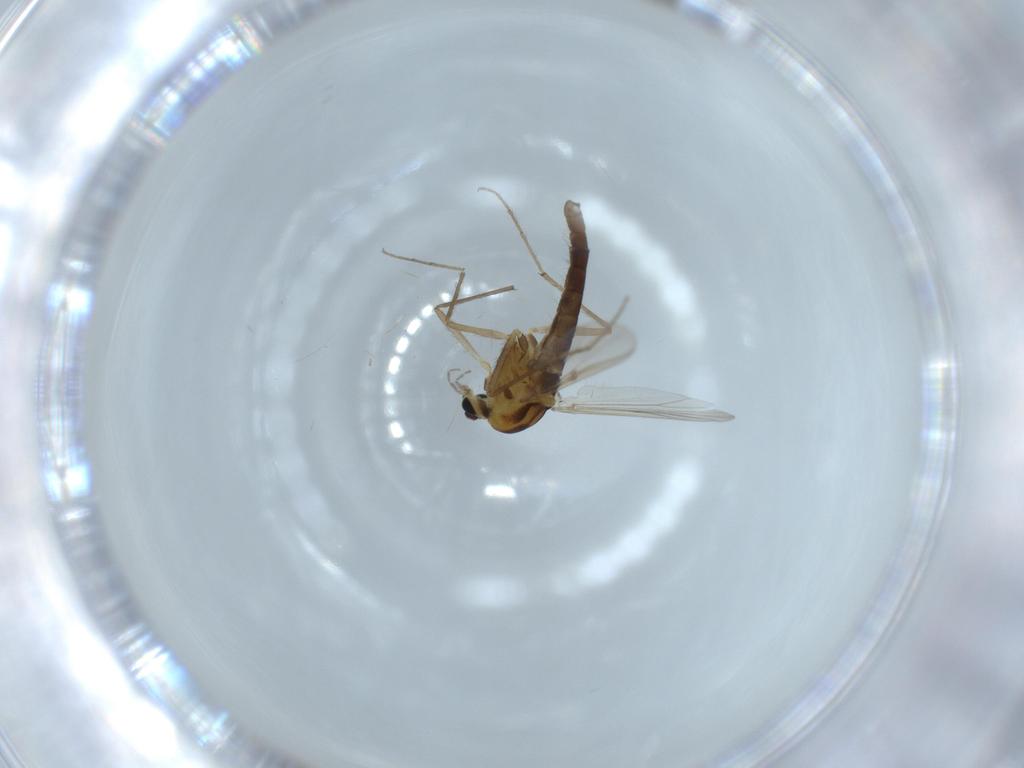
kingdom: Animalia
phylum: Arthropoda
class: Insecta
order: Diptera
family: Chironomidae
